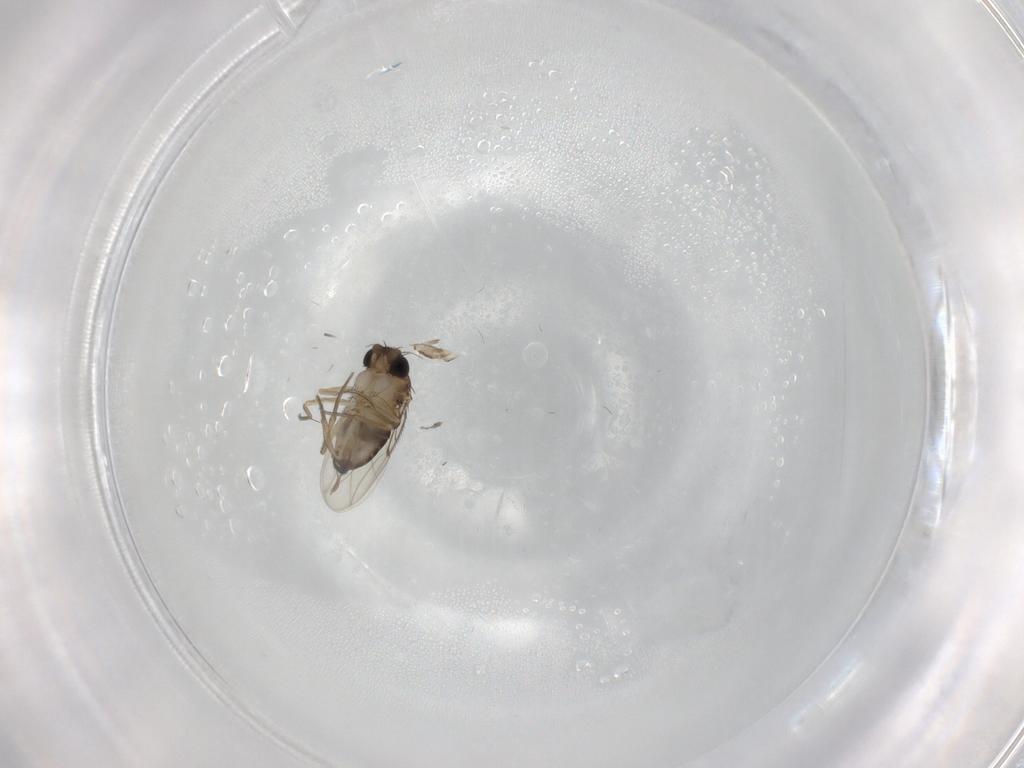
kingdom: Animalia
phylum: Arthropoda
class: Insecta
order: Diptera
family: Cecidomyiidae
